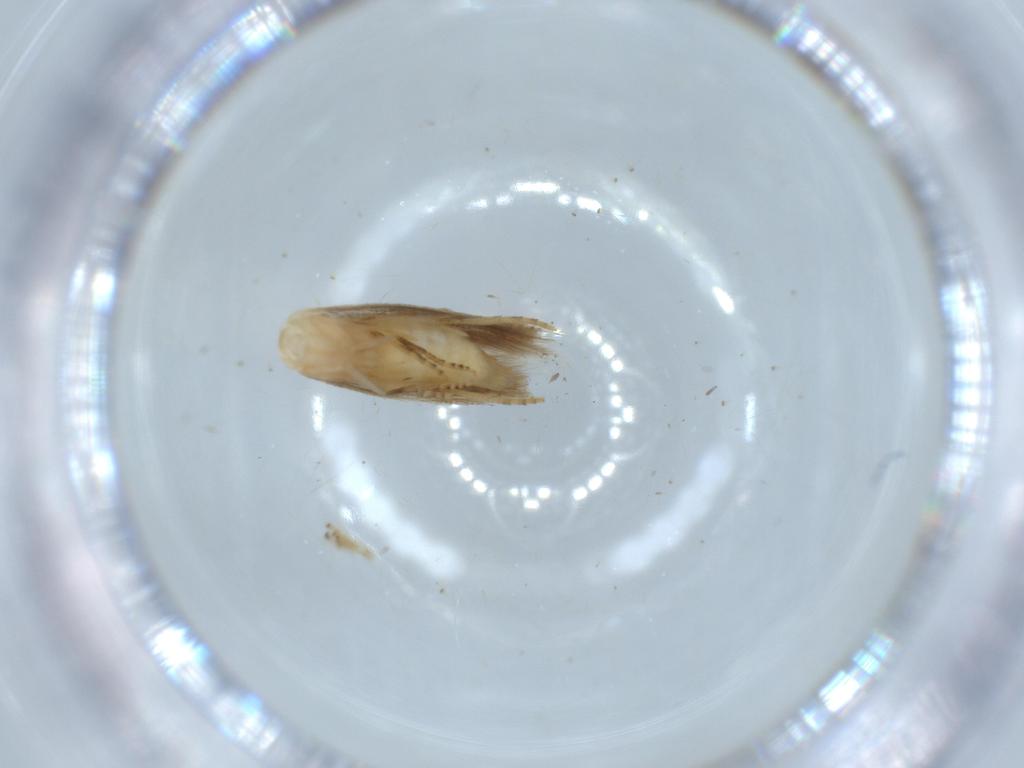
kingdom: Animalia
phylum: Arthropoda
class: Insecta
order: Lepidoptera
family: Bucculatricidae
